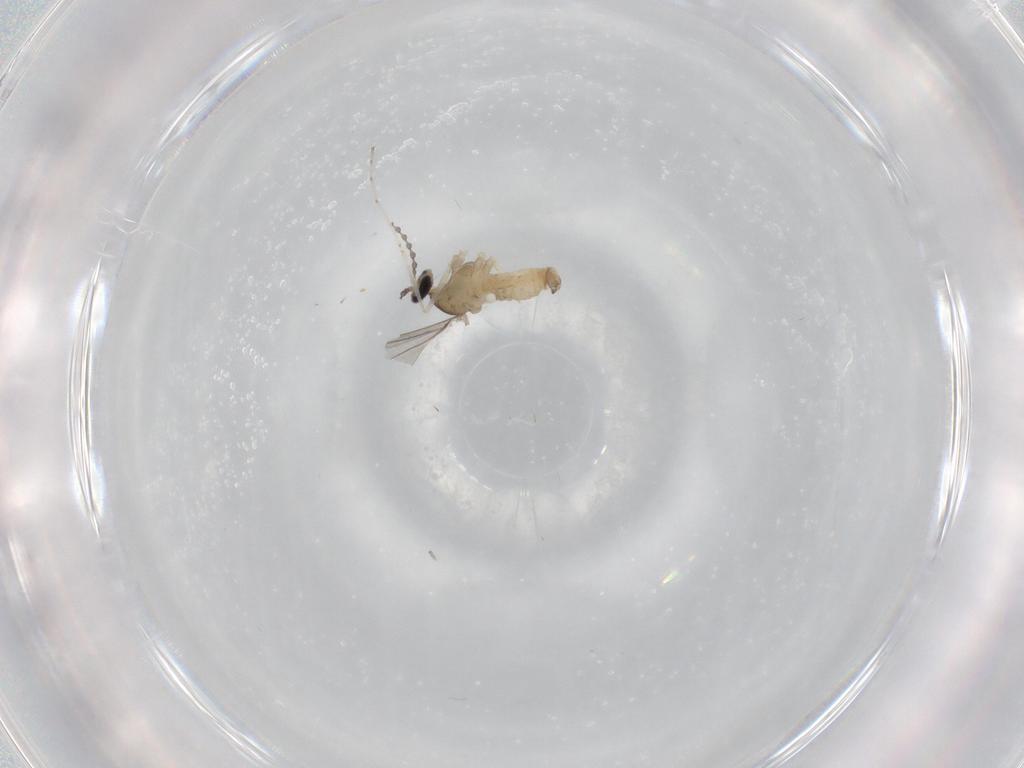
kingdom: Animalia
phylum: Arthropoda
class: Insecta
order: Diptera
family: Cecidomyiidae
